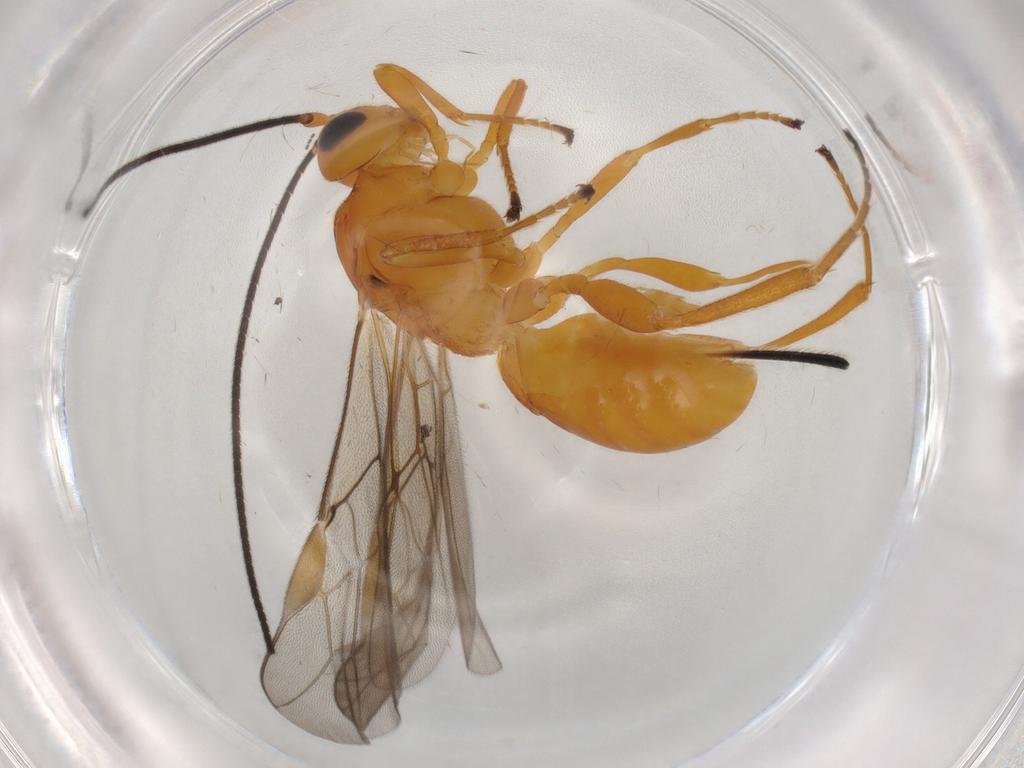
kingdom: Animalia
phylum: Arthropoda
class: Insecta
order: Hymenoptera
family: Braconidae
